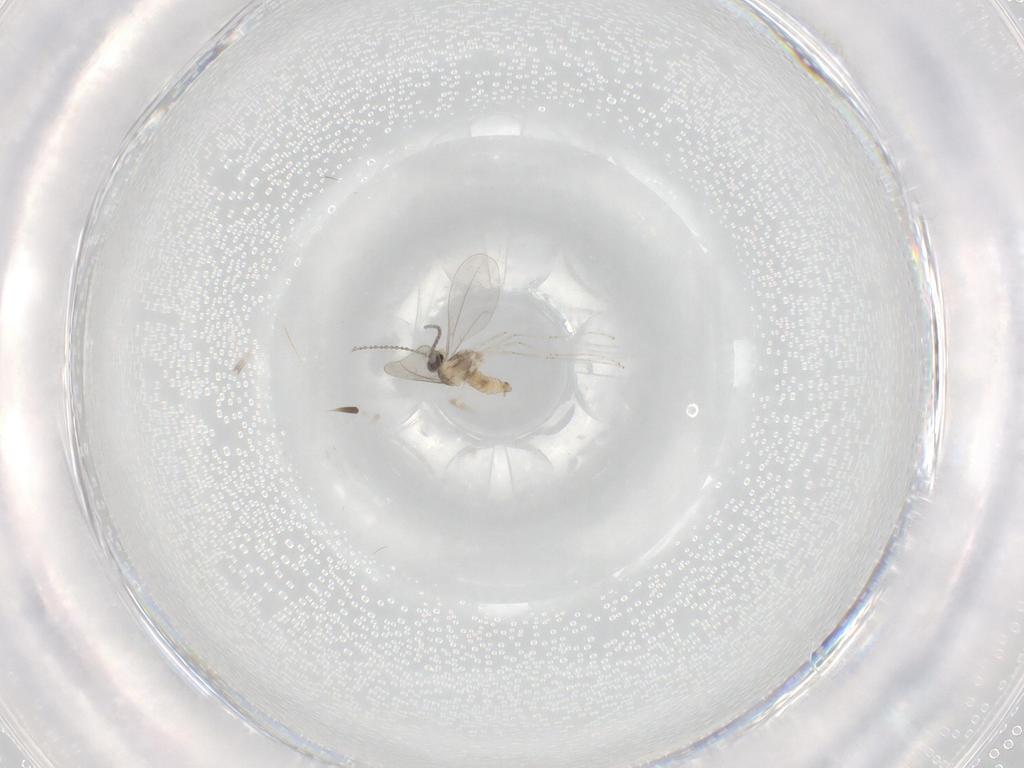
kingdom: Animalia
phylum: Arthropoda
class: Insecta
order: Diptera
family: Cecidomyiidae
